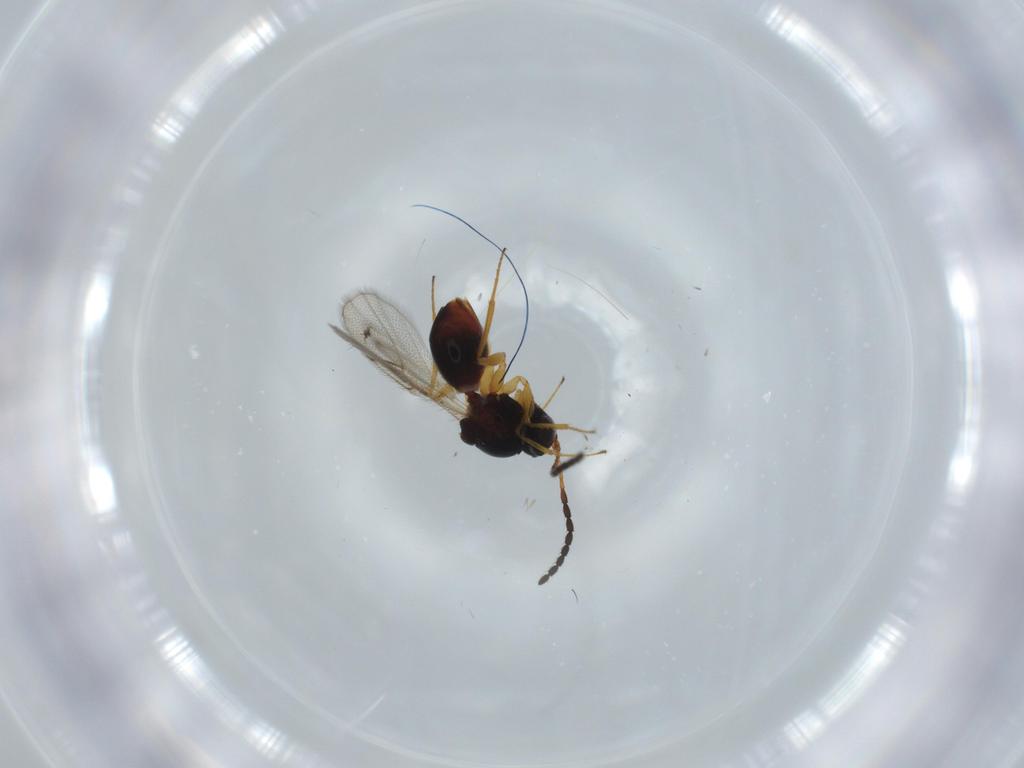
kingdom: Animalia
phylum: Arthropoda
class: Insecta
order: Hymenoptera
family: Figitidae
